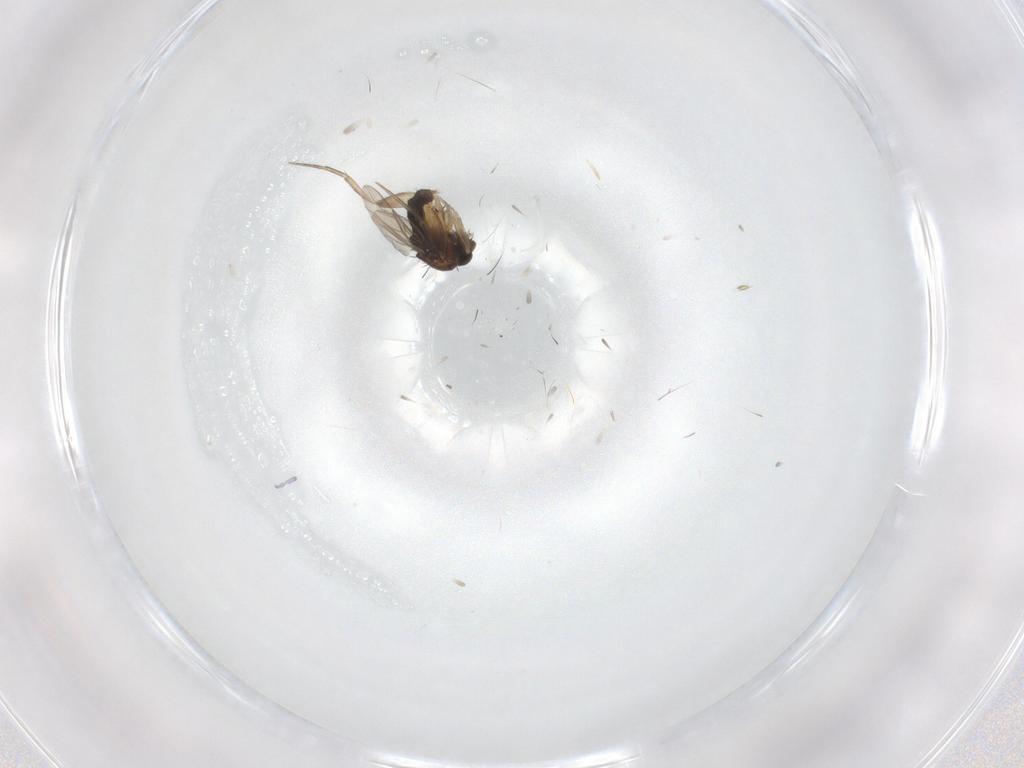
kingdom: Animalia
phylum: Arthropoda
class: Insecta
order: Diptera
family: Phoridae
